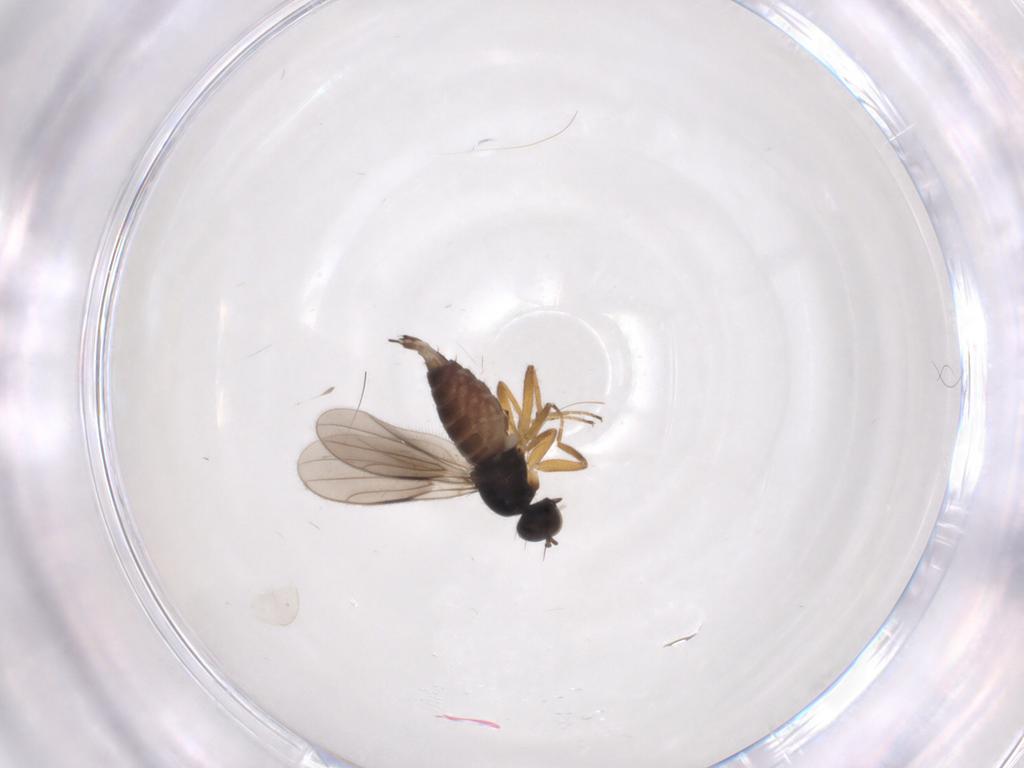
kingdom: Animalia
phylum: Arthropoda
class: Insecta
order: Diptera
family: Hybotidae
